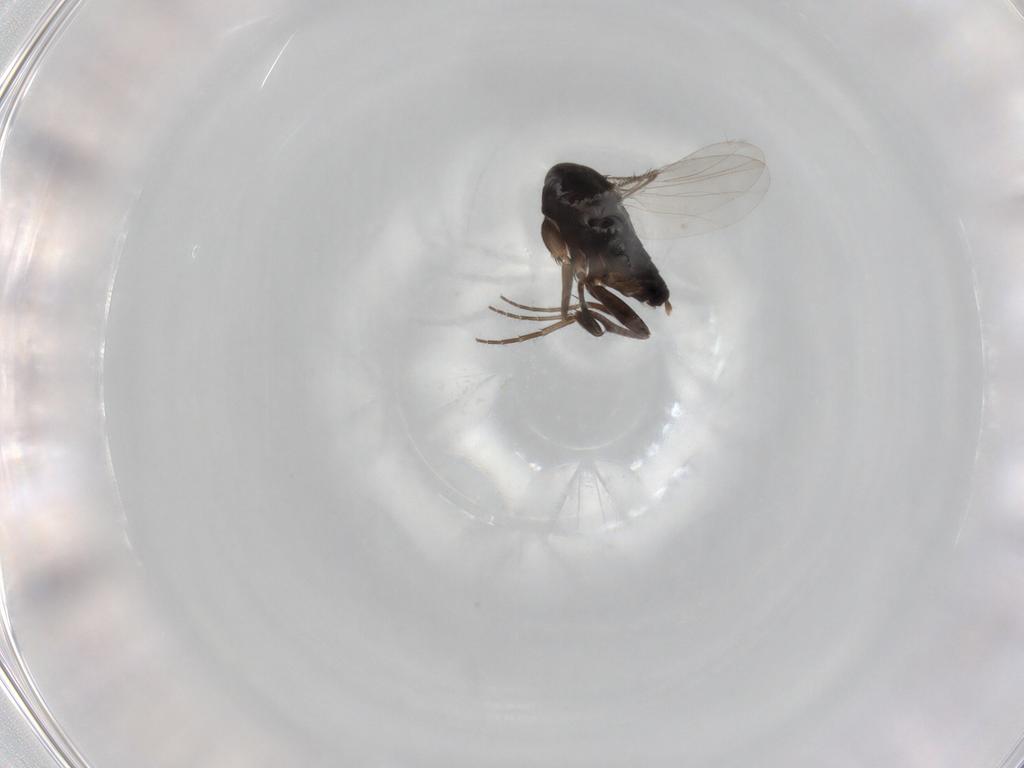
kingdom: Animalia
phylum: Arthropoda
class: Insecta
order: Diptera
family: Muscidae
